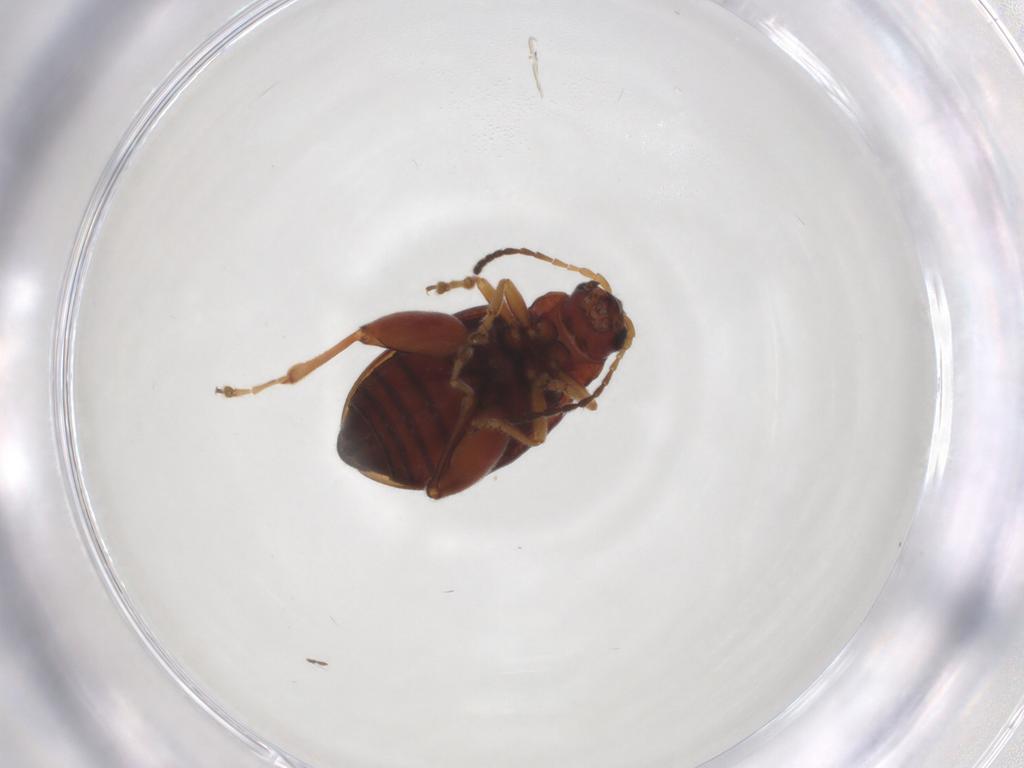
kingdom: Animalia
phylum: Arthropoda
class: Insecta
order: Coleoptera
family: Chrysomelidae
